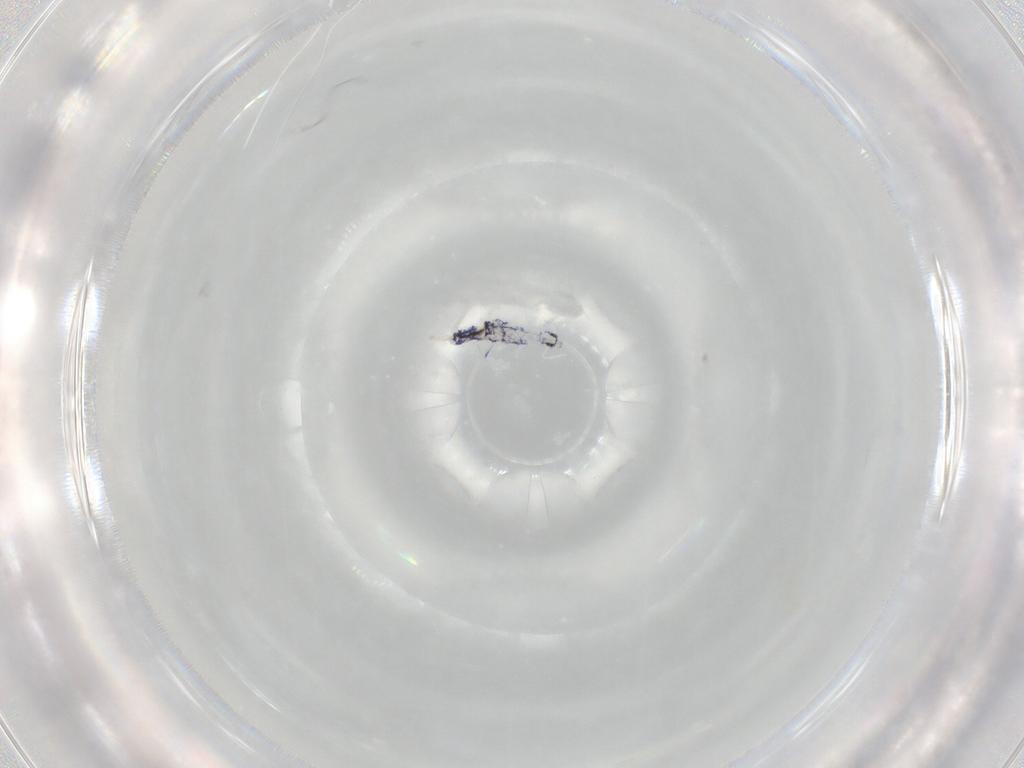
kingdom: Animalia
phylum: Arthropoda
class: Collembola
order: Entomobryomorpha
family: Entomobryidae
